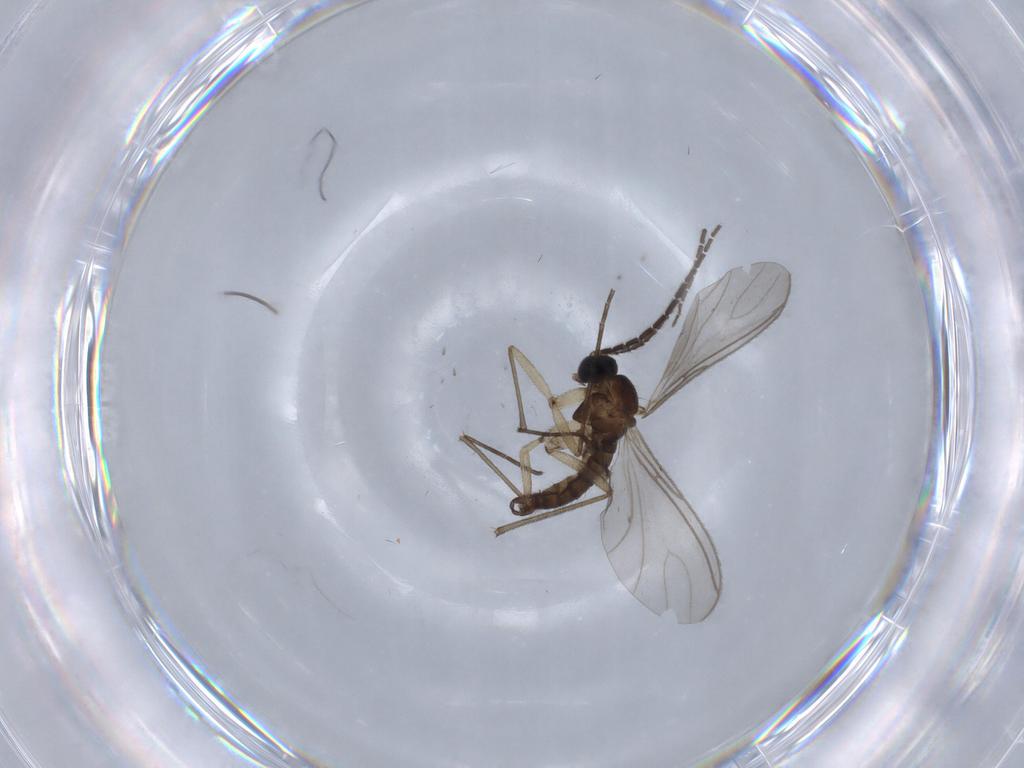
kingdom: Animalia
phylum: Arthropoda
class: Insecta
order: Diptera
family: Sciaridae
